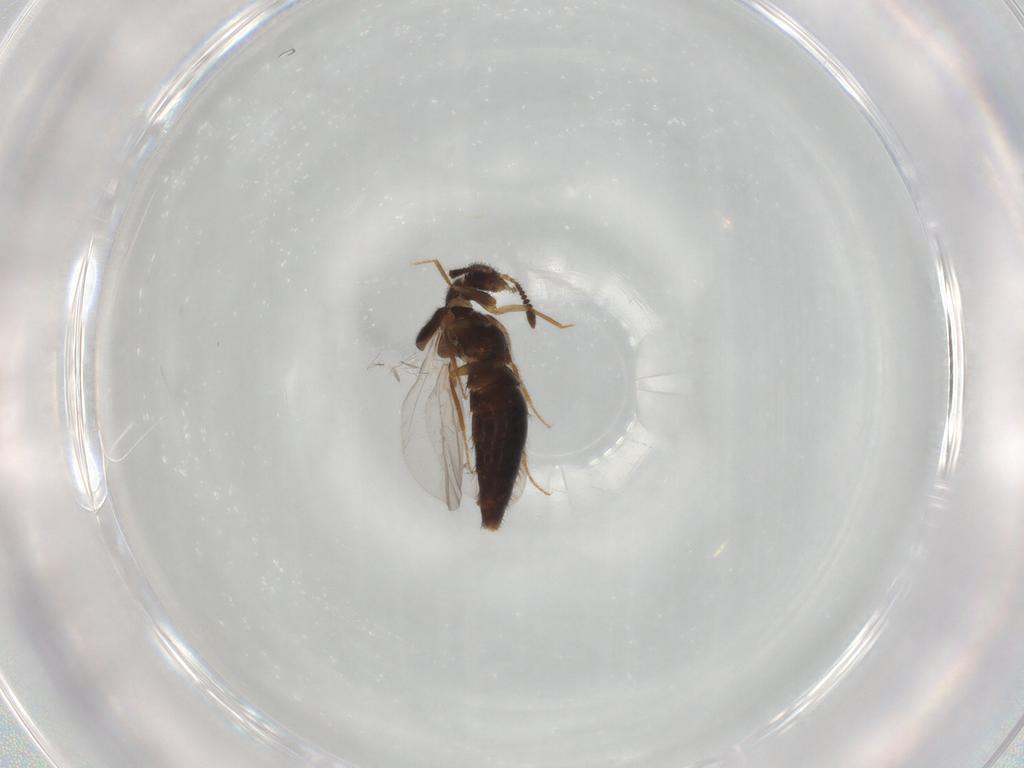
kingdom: Animalia
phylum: Arthropoda
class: Insecta
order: Coleoptera
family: Staphylinidae
